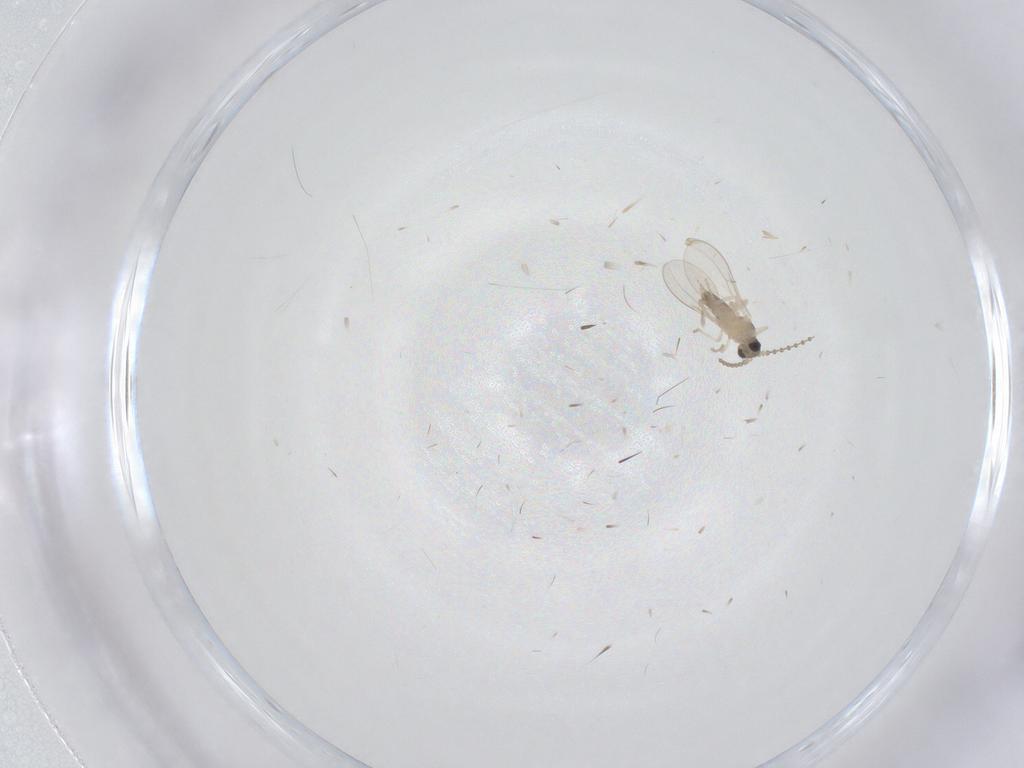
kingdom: Animalia
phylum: Arthropoda
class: Insecta
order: Diptera
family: Cecidomyiidae
